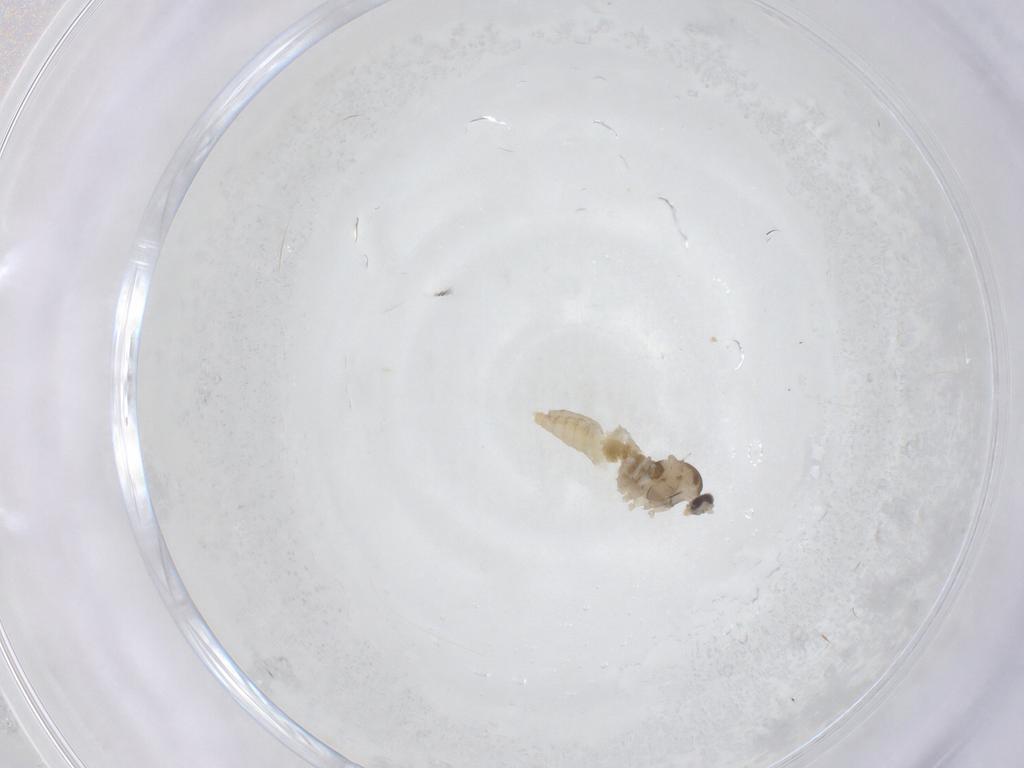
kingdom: Animalia
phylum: Arthropoda
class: Insecta
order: Diptera
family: Cecidomyiidae
